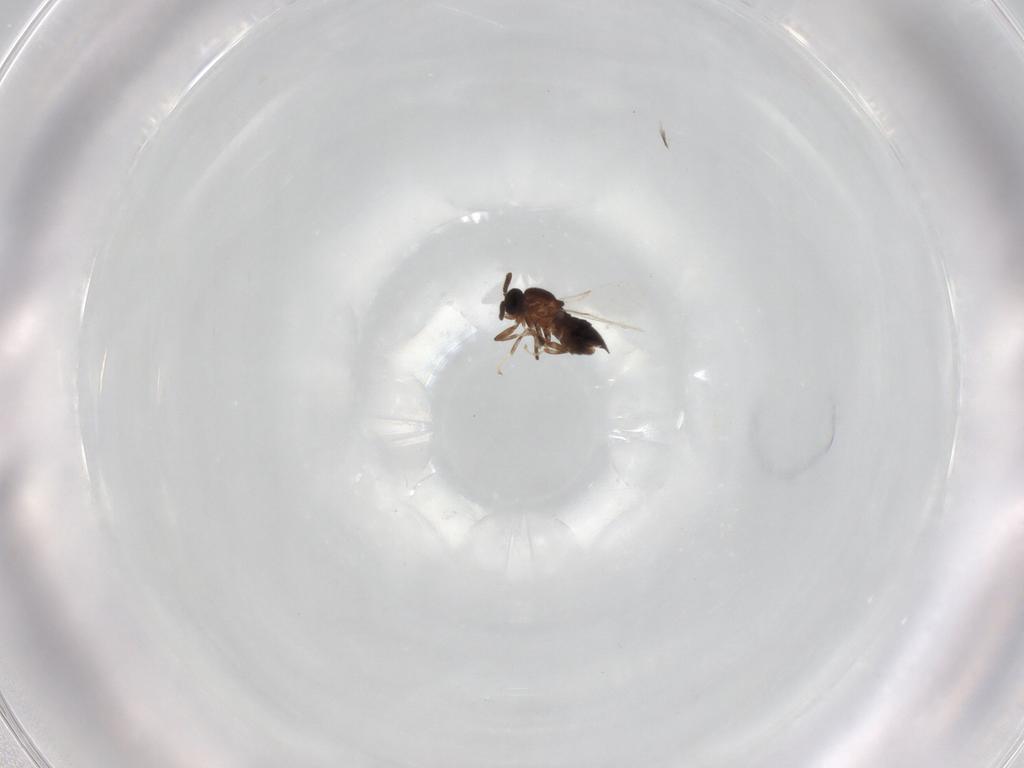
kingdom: Animalia
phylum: Arthropoda
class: Insecta
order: Diptera
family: Scatopsidae
